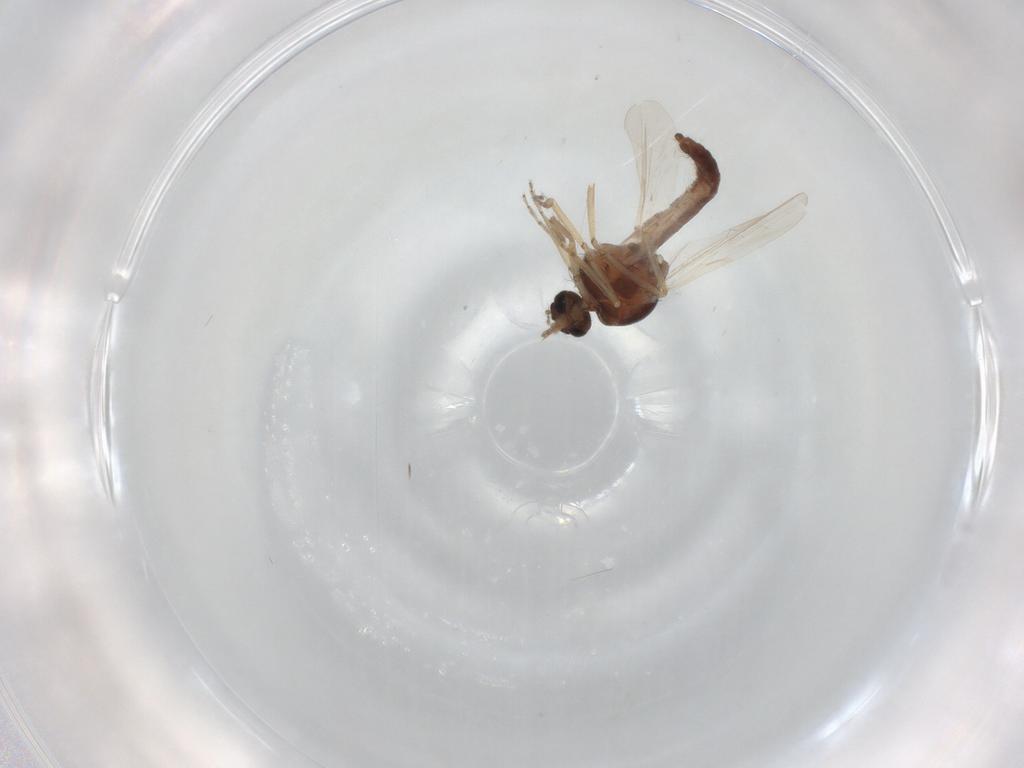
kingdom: Animalia
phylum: Arthropoda
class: Insecta
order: Diptera
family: Ceratopogonidae
